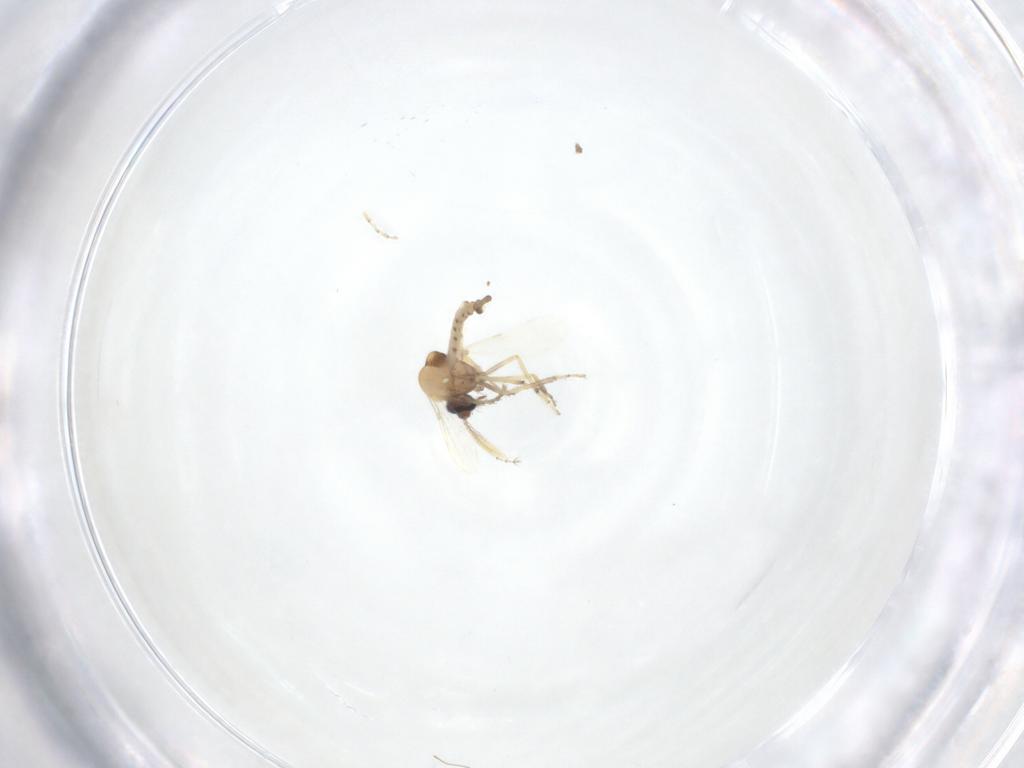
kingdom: Animalia
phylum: Arthropoda
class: Insecta
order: Diptera
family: Ceratopogonidae
